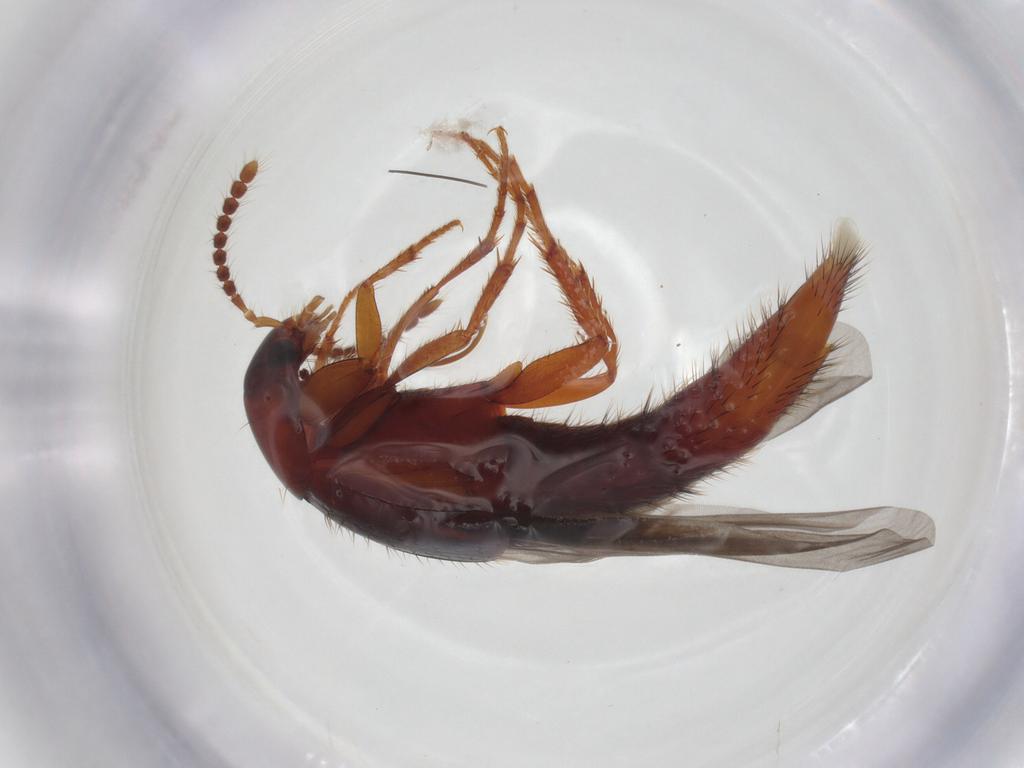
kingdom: Animalia
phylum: Arthropoda
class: Insecta
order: Coleoptera
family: Staphylinidae
